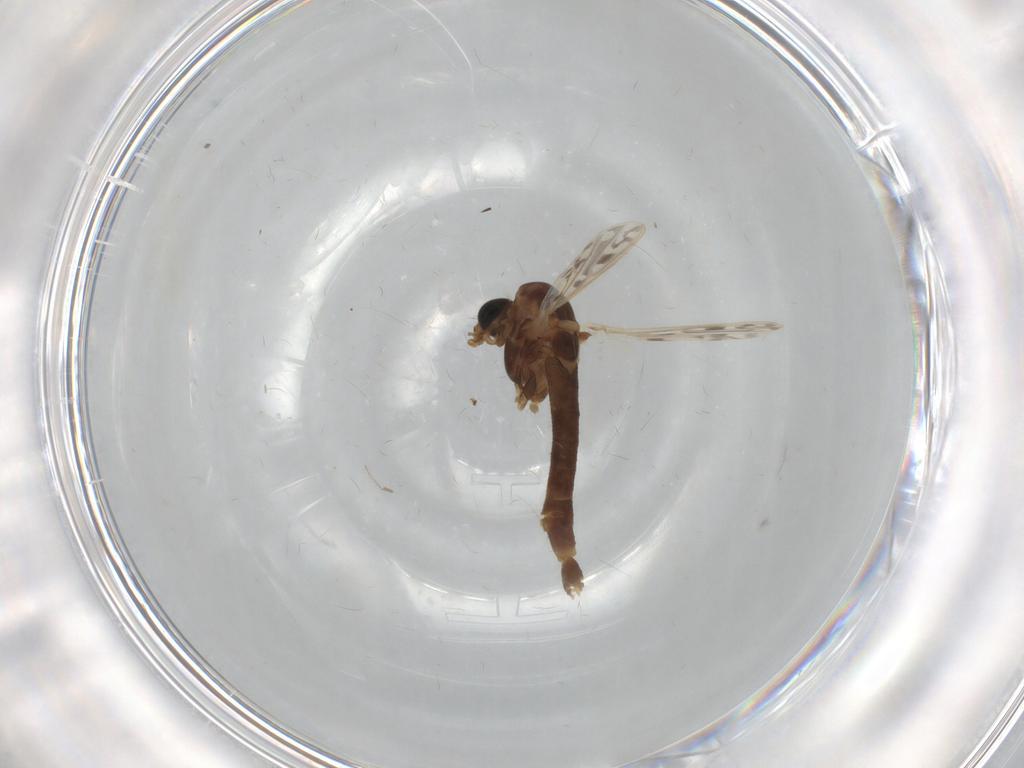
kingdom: Animalia
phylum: Arthropoda
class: Insecta
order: Diptera
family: Chironomidae
